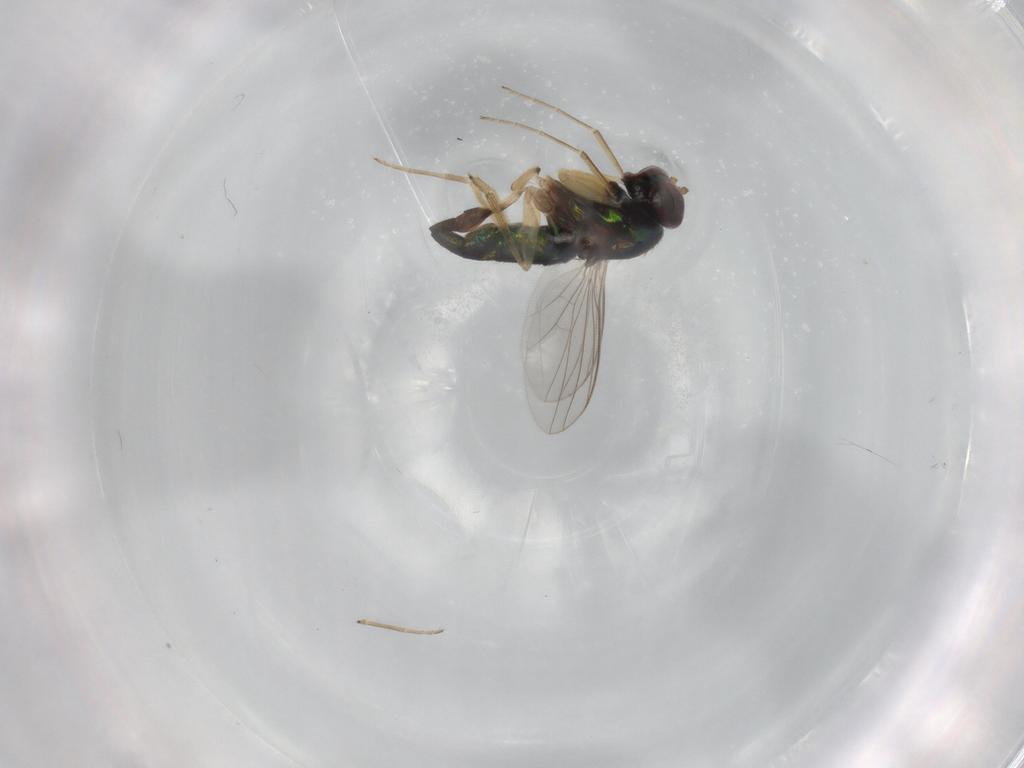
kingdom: Animalia
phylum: Arthropoda
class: Insecta
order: Diptera
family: Dolichopodidae
